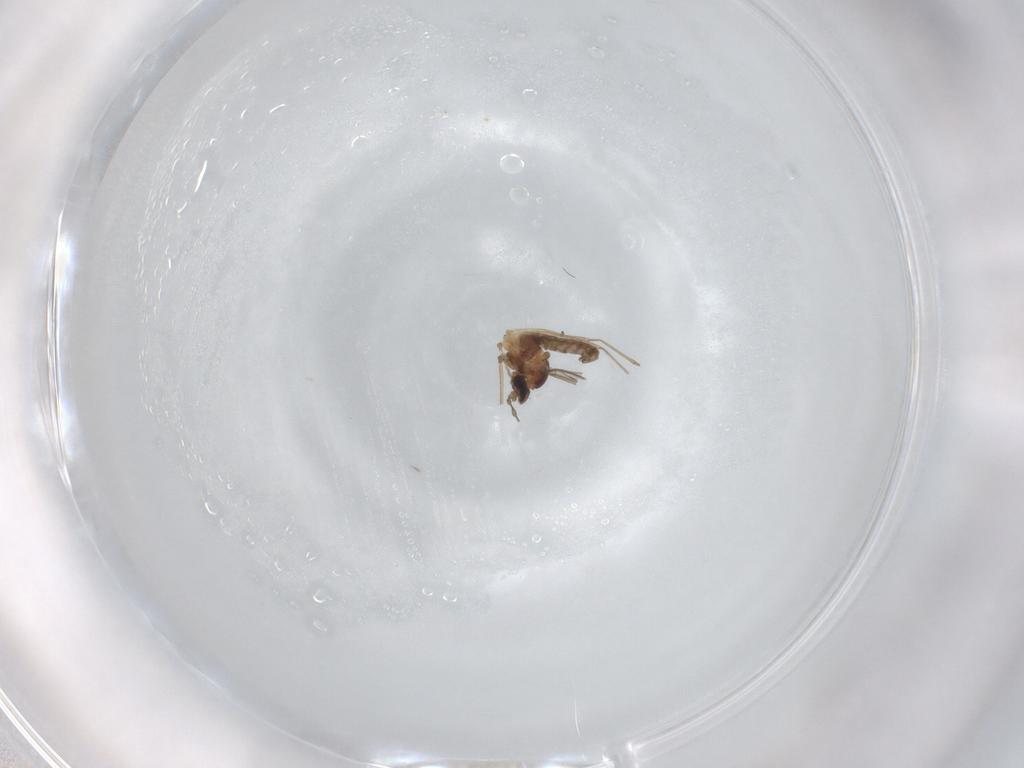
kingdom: Animalia
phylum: Arthropoda
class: Insecta
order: Diptera
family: Cecidomyiidae
